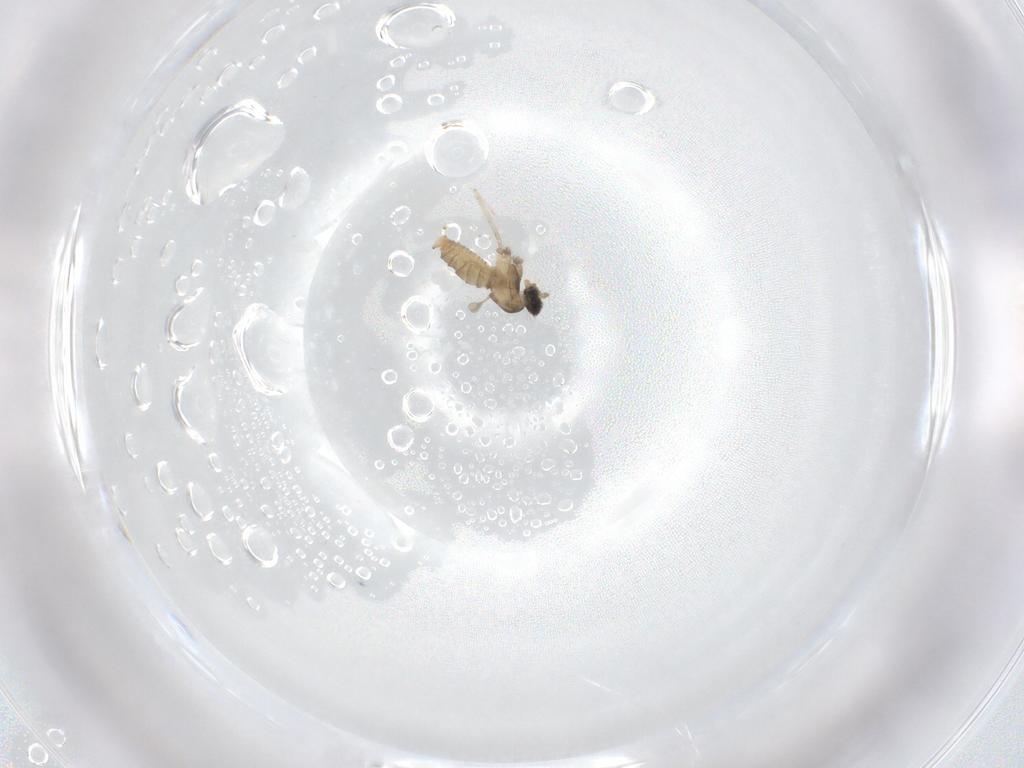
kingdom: Animalia
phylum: Arthropoda
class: Insecta
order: Diptera
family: Cecidomyiidae
